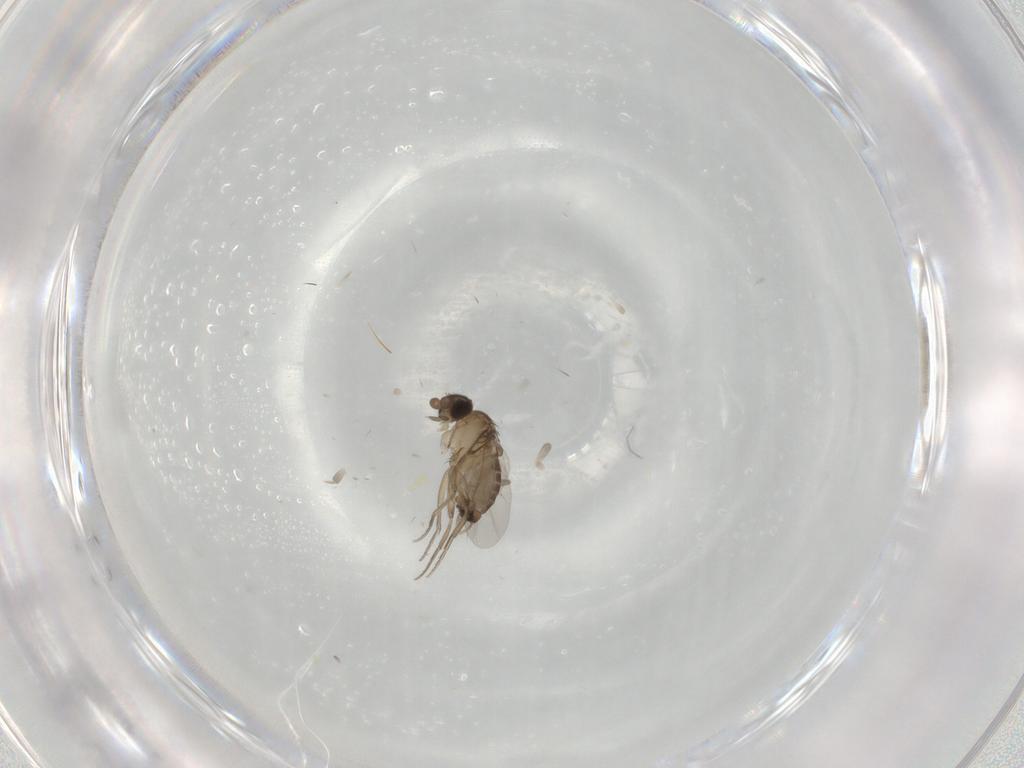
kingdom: Animalia
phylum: Arthropoda
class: Insecta
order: Diptera
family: Phoridae
